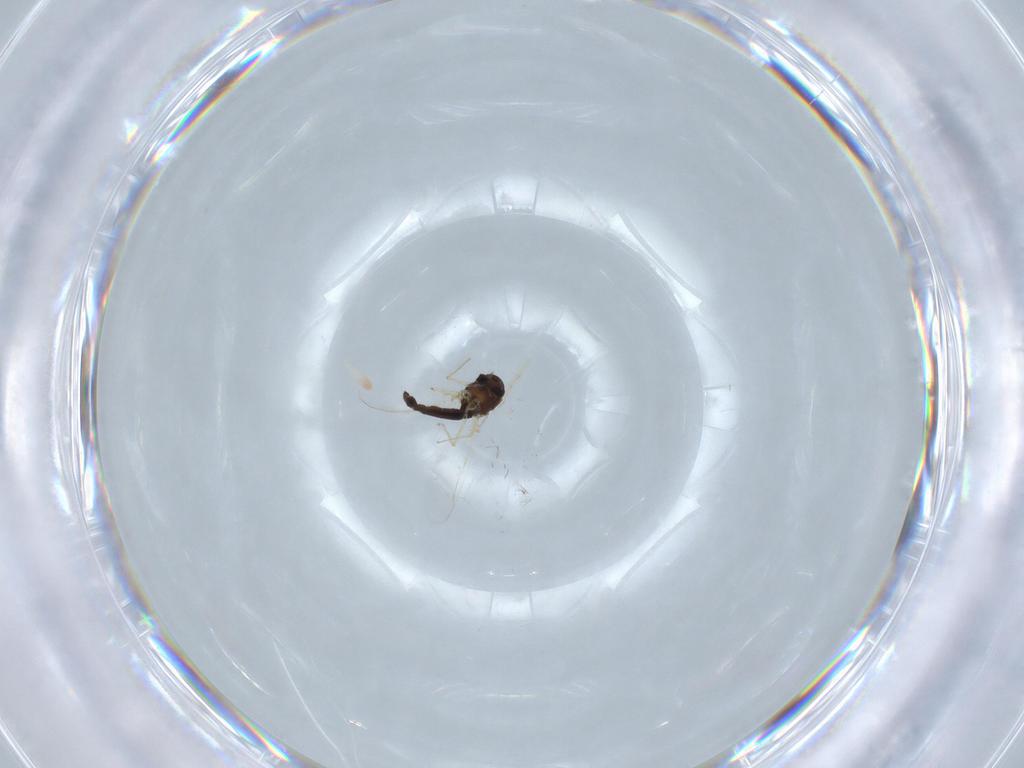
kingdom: Animalia
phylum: Arthropoda
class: Insecta
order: Diptera
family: Chironomidae
